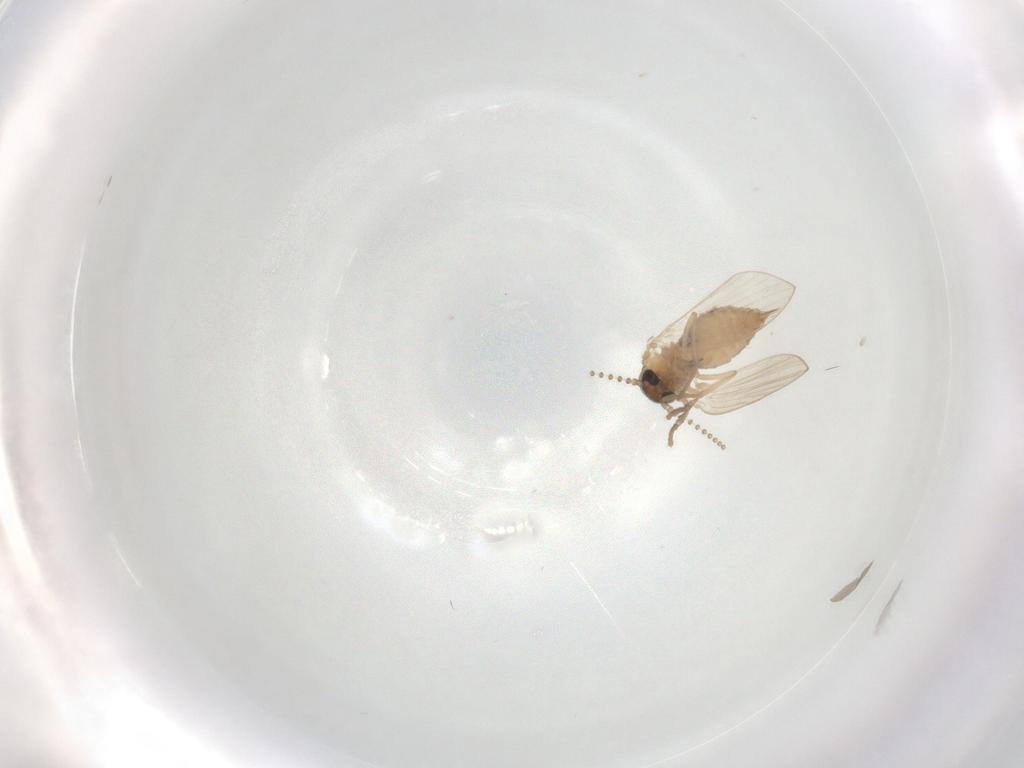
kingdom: Animalia
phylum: Arthropoda
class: Insecta
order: Diptera
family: Psychodidae
